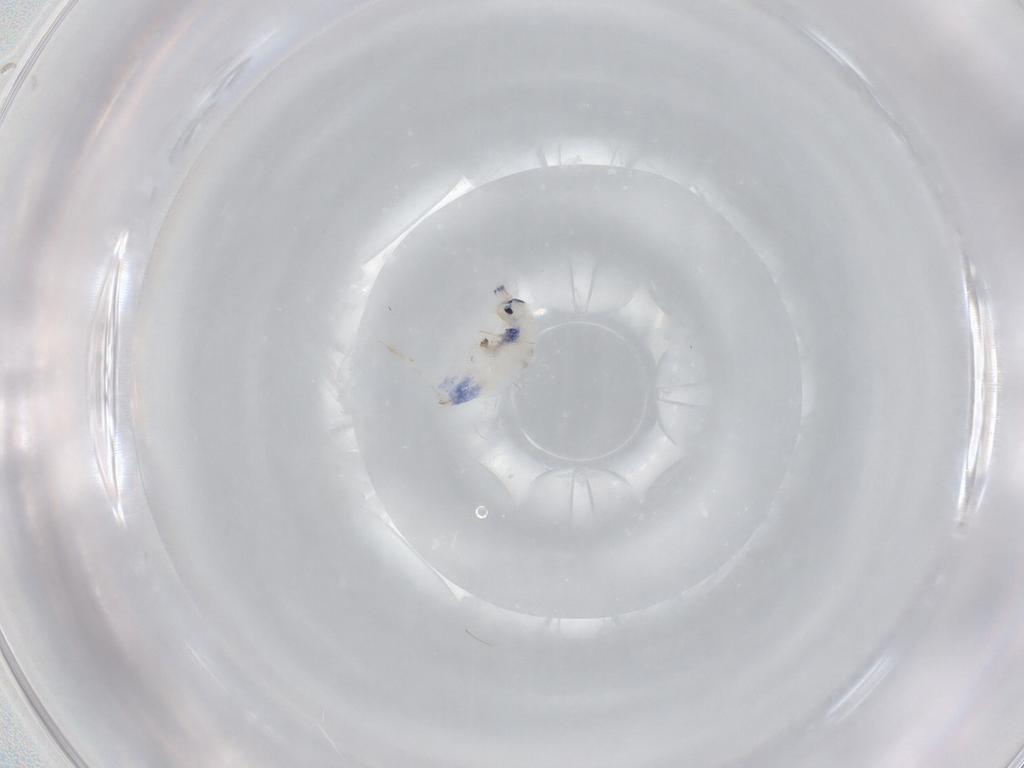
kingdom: Animalia
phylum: Arthropoda
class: Collembola
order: Entomobryomorpha
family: Entomobryidae
